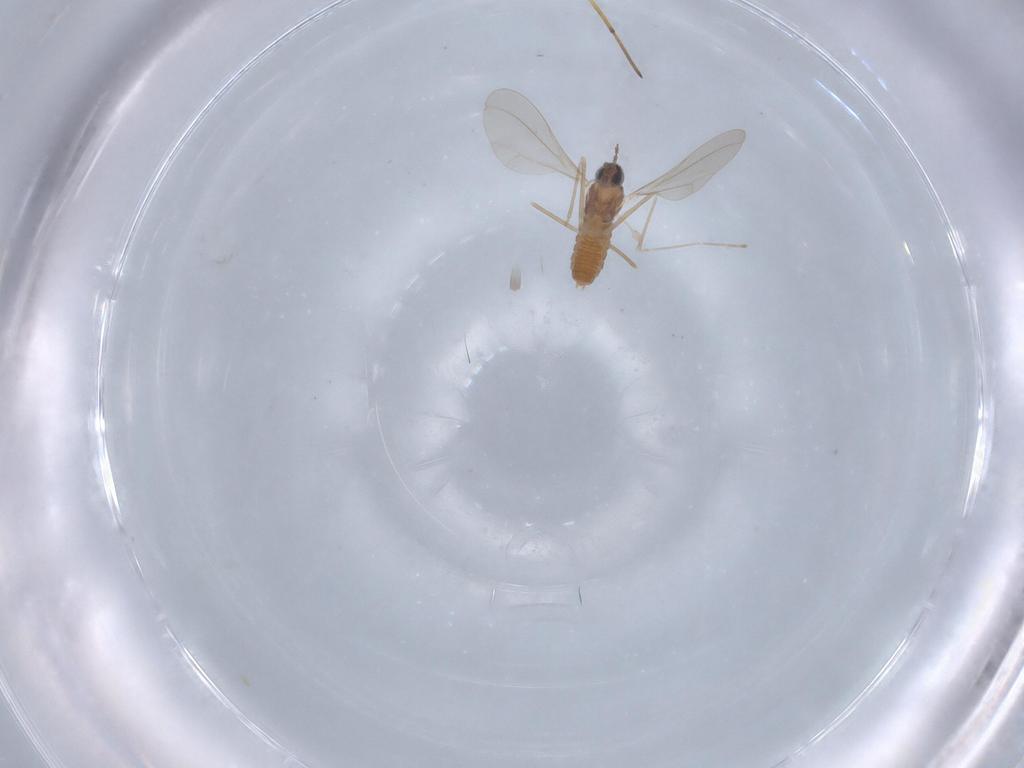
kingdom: Animalia
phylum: Arthropoda
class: Insecta
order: Diptera
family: Cecidomyiidae
